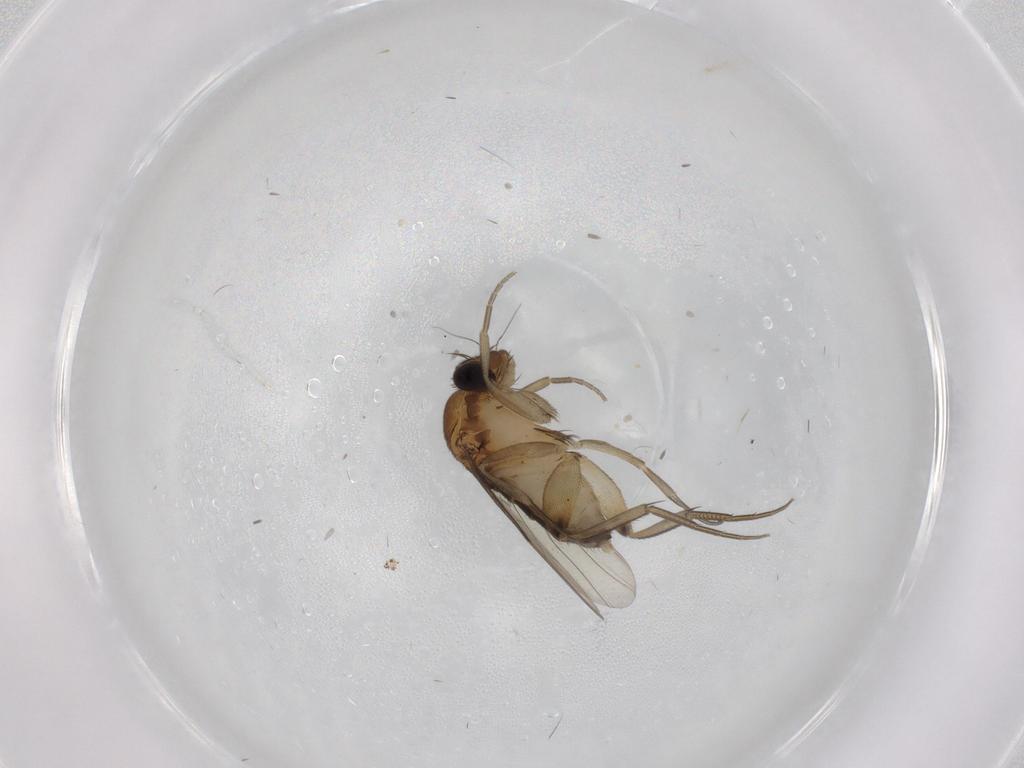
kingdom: Animalia
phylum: Arthropoda
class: Insecta
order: Diptera
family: Phoridae
